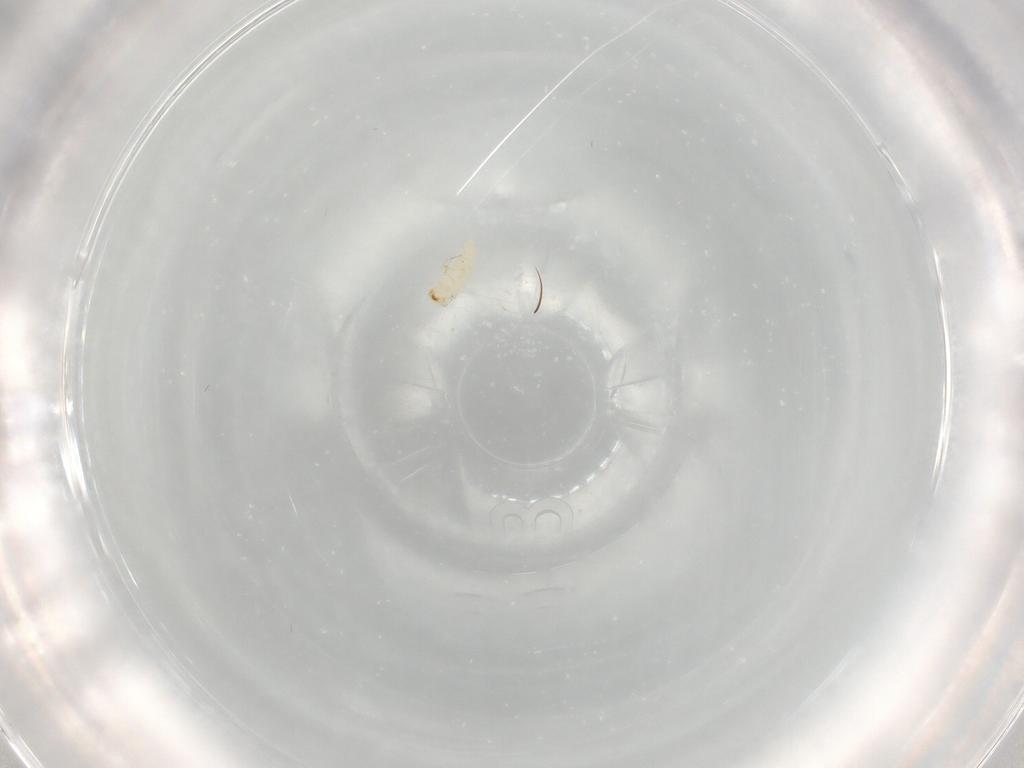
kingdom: Animalia
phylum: Arthropoda
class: Insecta
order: Coleoptera
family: Chrysomelidae
